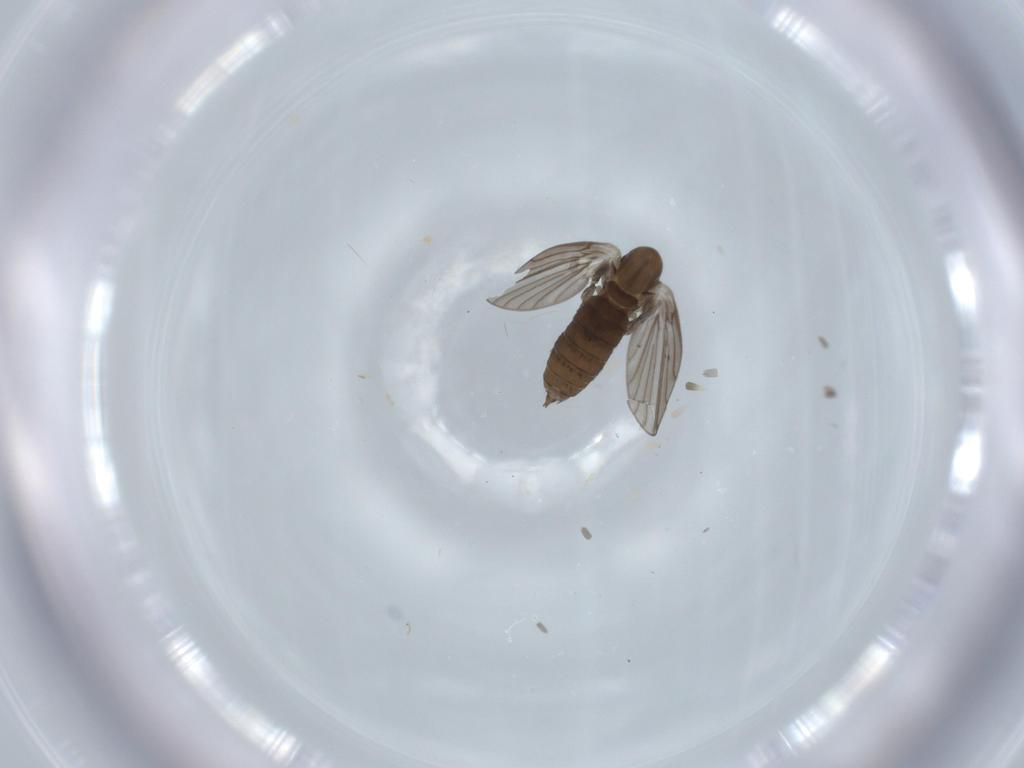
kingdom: Animalia
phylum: Arthropoda
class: Insecta
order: Diptera
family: Psychodidae
